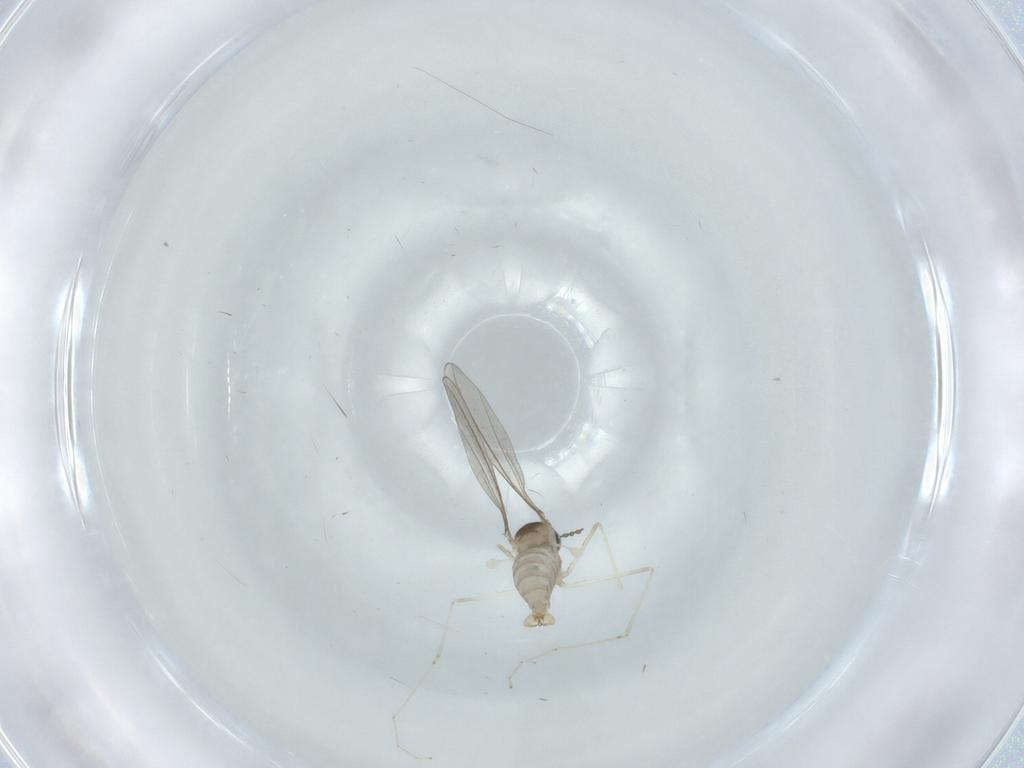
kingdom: Animalia
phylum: Arthropoda
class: Insecta
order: Diptera
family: Cecidomyiidae
